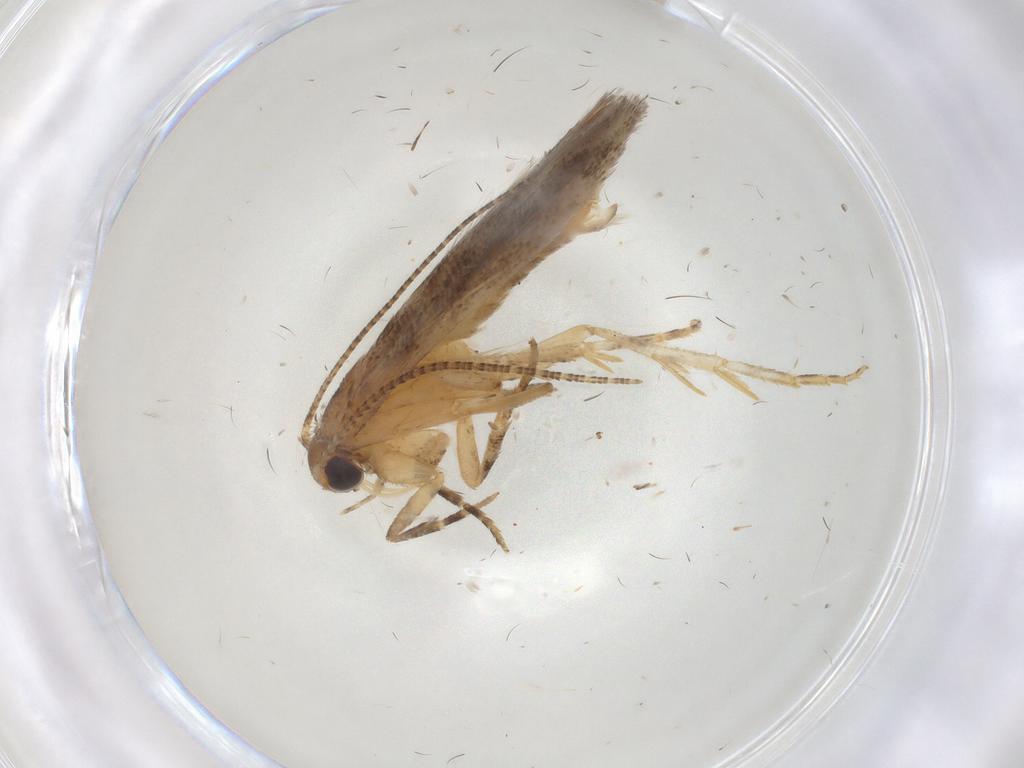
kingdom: Animalia
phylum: Arthropoda
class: Insecta
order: Lepidoptera
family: Gelechiidae
